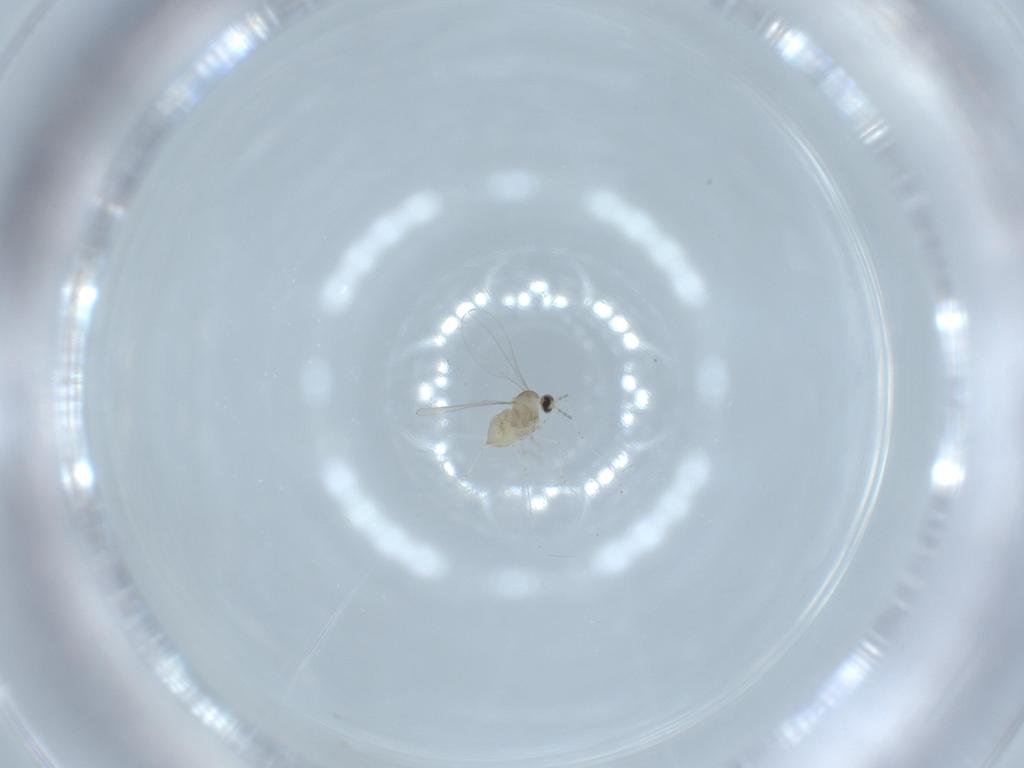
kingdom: Animalia
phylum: Arthropoda
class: Insecta
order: Diptera
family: Cecidomyiidae
